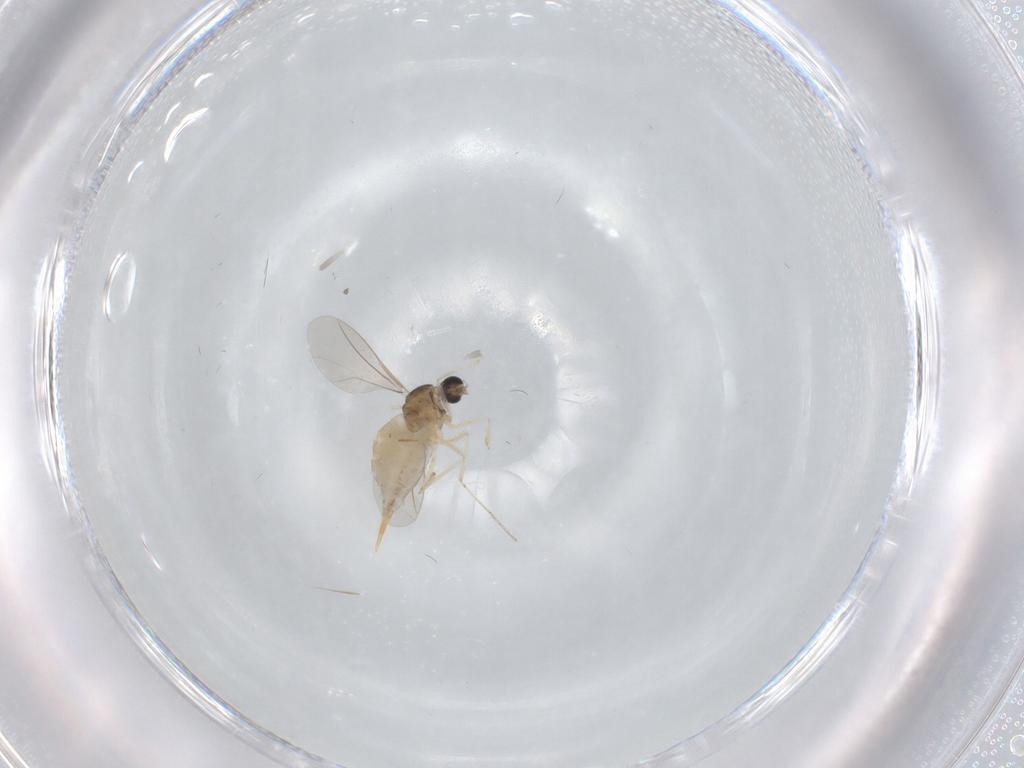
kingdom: Animalia
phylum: Arthropoda
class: Insecta
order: Diptera
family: Cecidomyiidae
